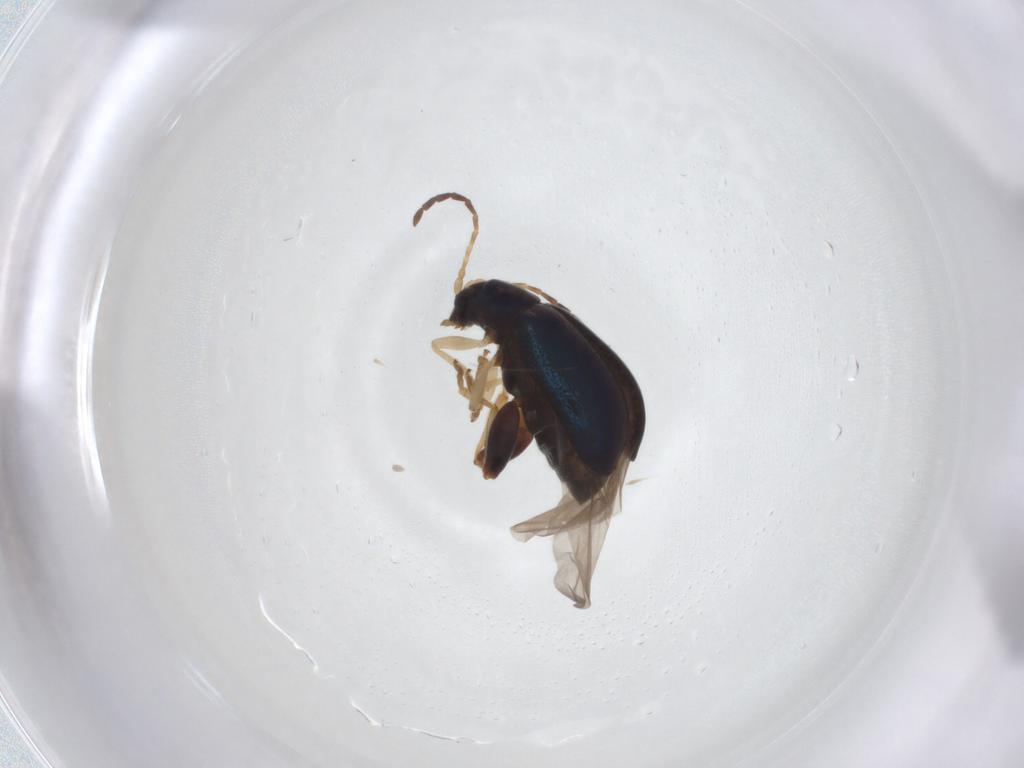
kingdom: Animalia
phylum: Arthropoda
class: Insecta
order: Coleoptera
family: Chrysomelidae
